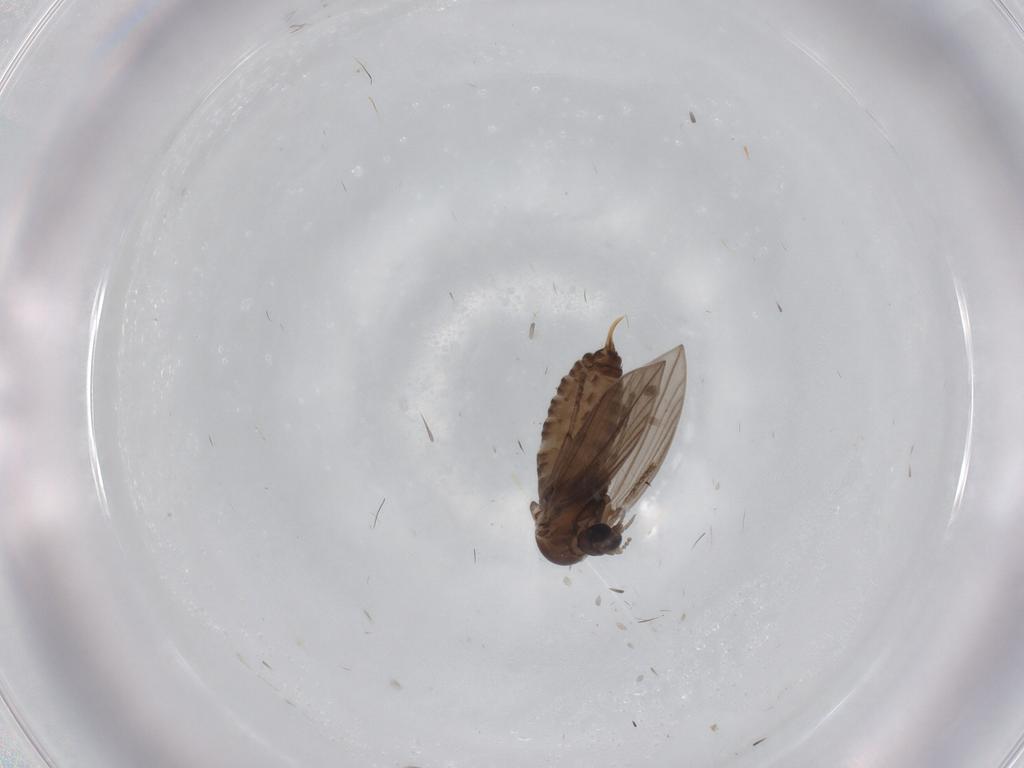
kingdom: Animalia
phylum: Arthropoda
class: Insecta
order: Diptera
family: Psychodidae
